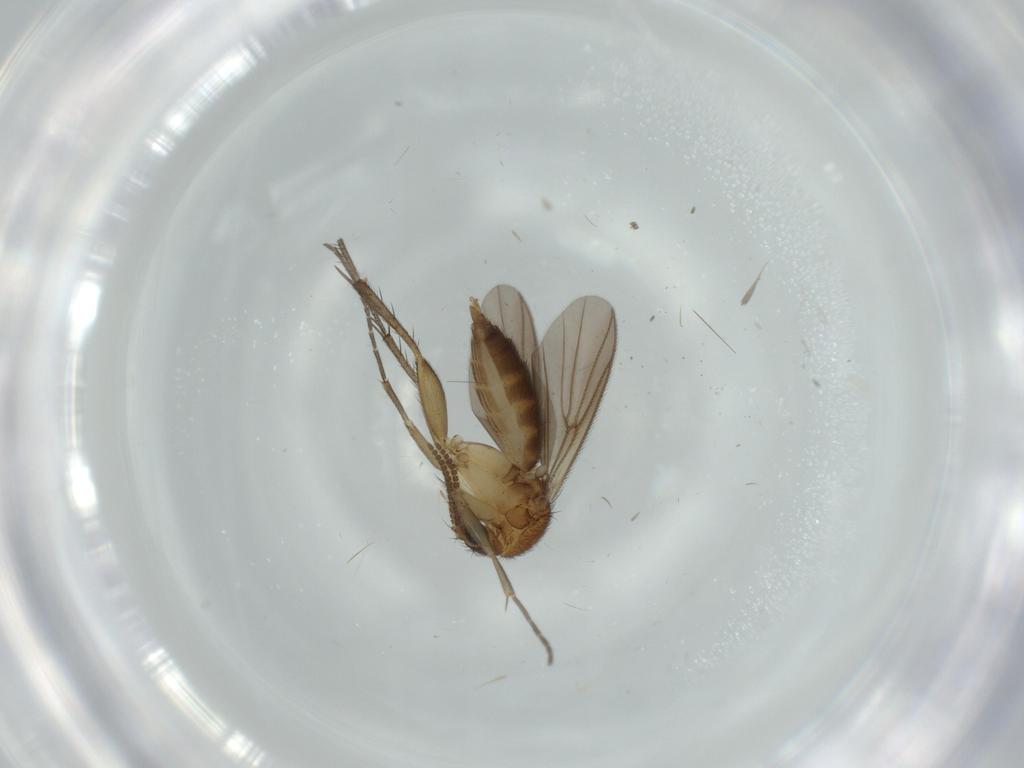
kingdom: Animalia
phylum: Arthropoda
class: Insecta
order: Diptera
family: Mycetophilidae
